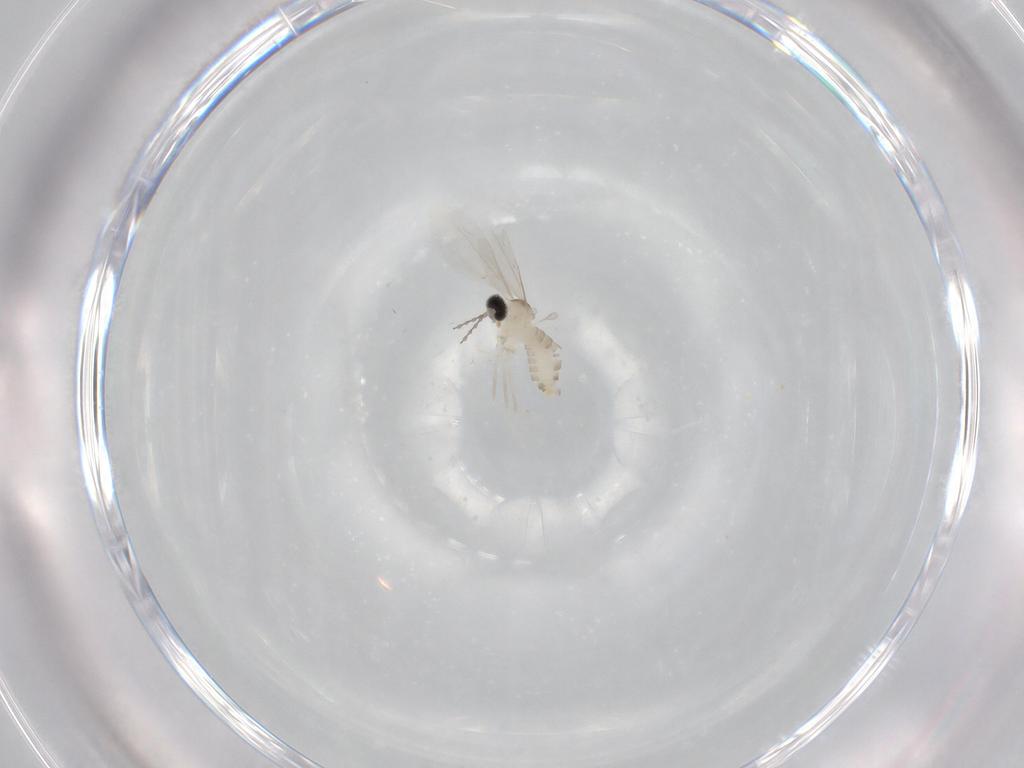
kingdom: Animalia
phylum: Arthropoda
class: Insecta
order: Diptera
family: Chironomidae
